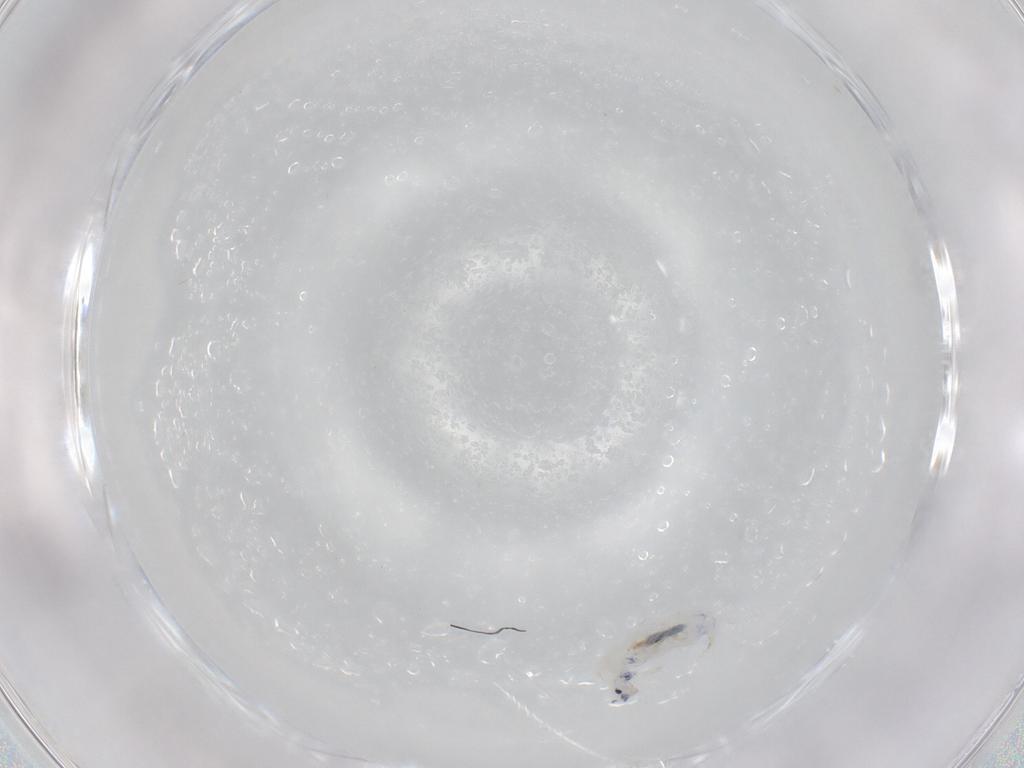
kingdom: Animalia
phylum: Arthropoda
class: Collembola
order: Entomobryomorpha
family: Entomobryidae
